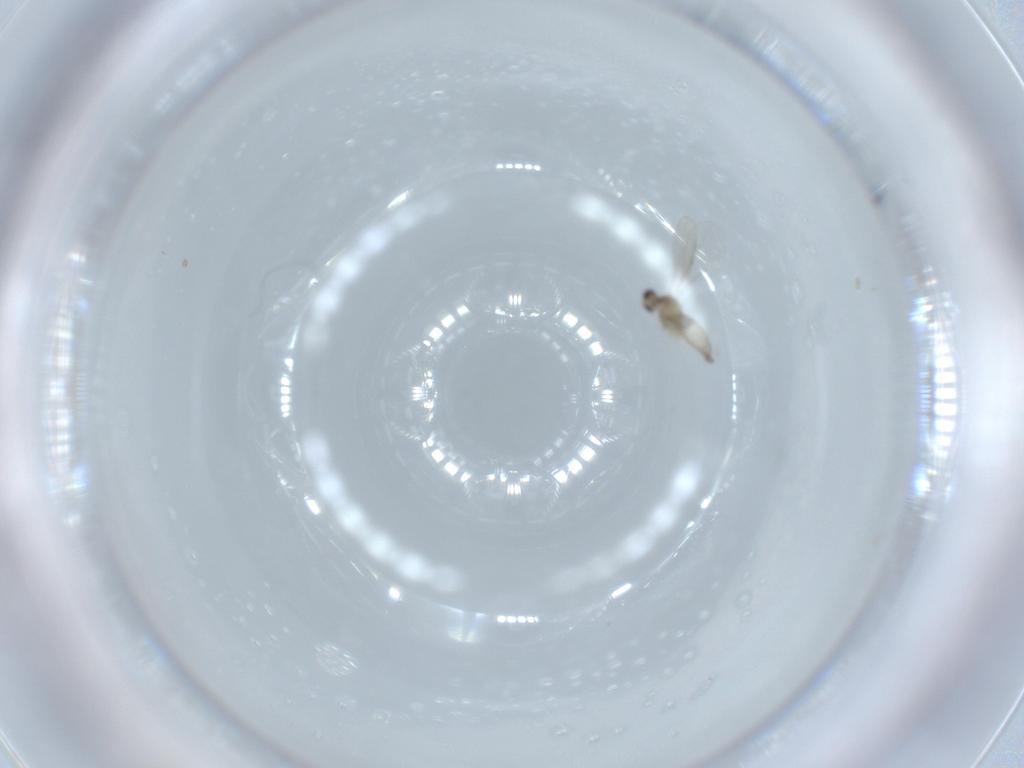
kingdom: Animalia
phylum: Arthropoda
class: Insecta
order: Diptera
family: Cecidomyiidae
